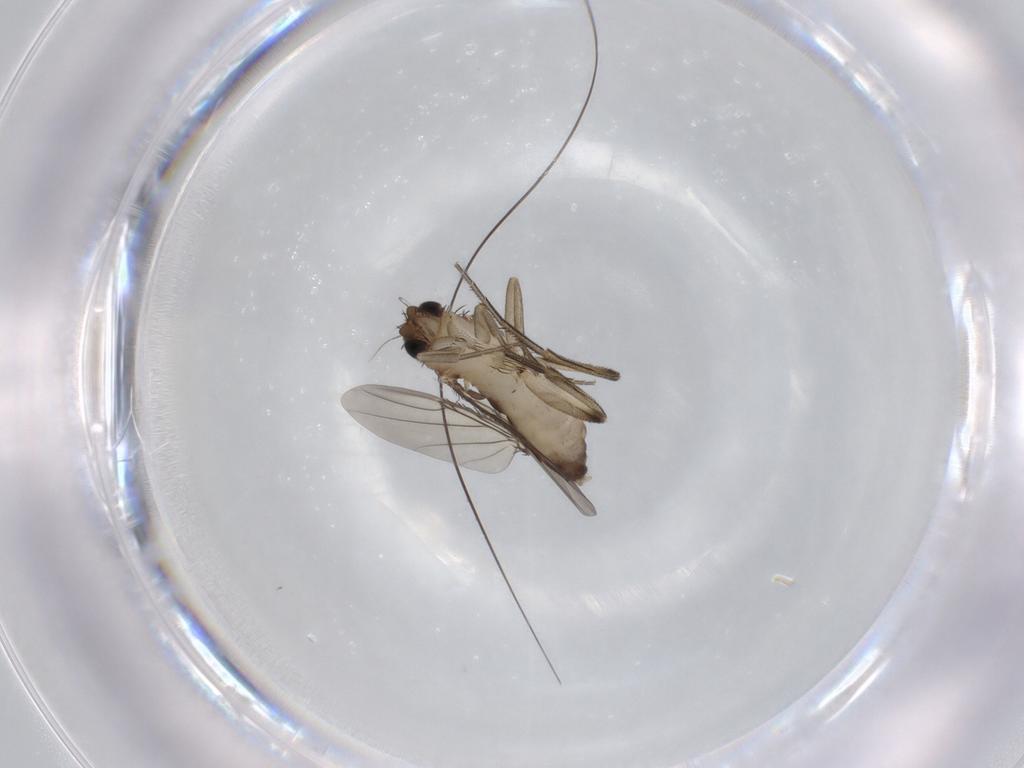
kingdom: Animalia
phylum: Arthropoda
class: Insecta
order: Diptera
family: Phoridae
